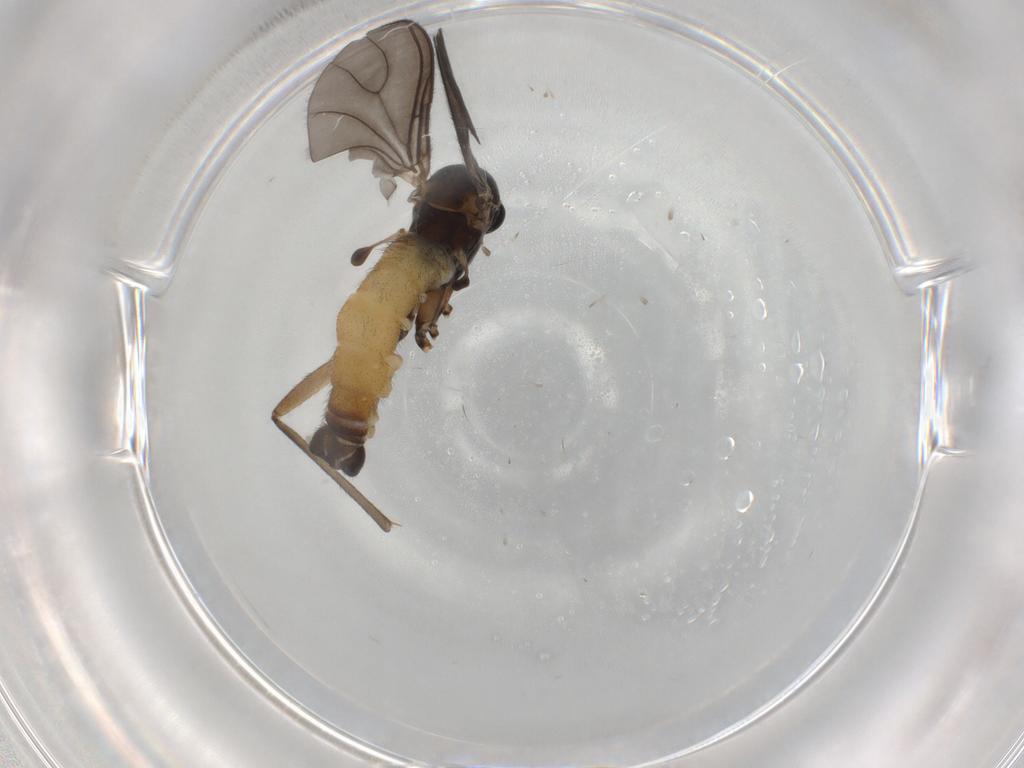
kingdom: Animalia
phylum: Arthropoda
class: Insecta
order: Diptera
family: Sciaridae
